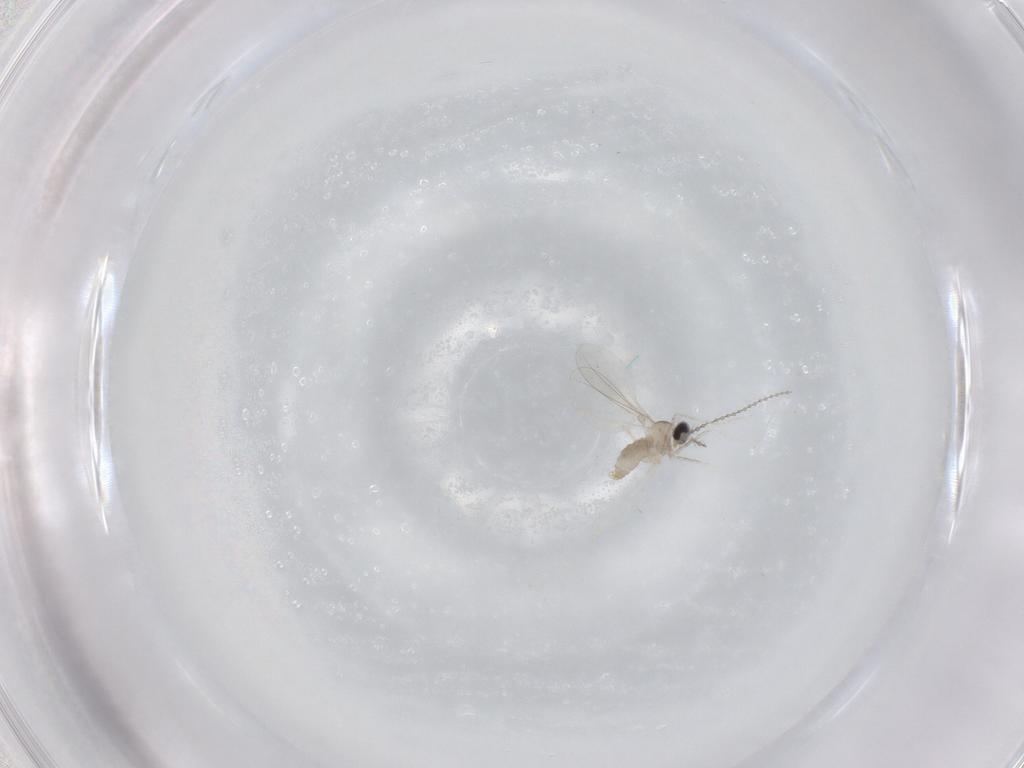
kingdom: Animalia
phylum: Arthropoda
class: Insecta
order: Diptera
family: Cecidomyiidae
